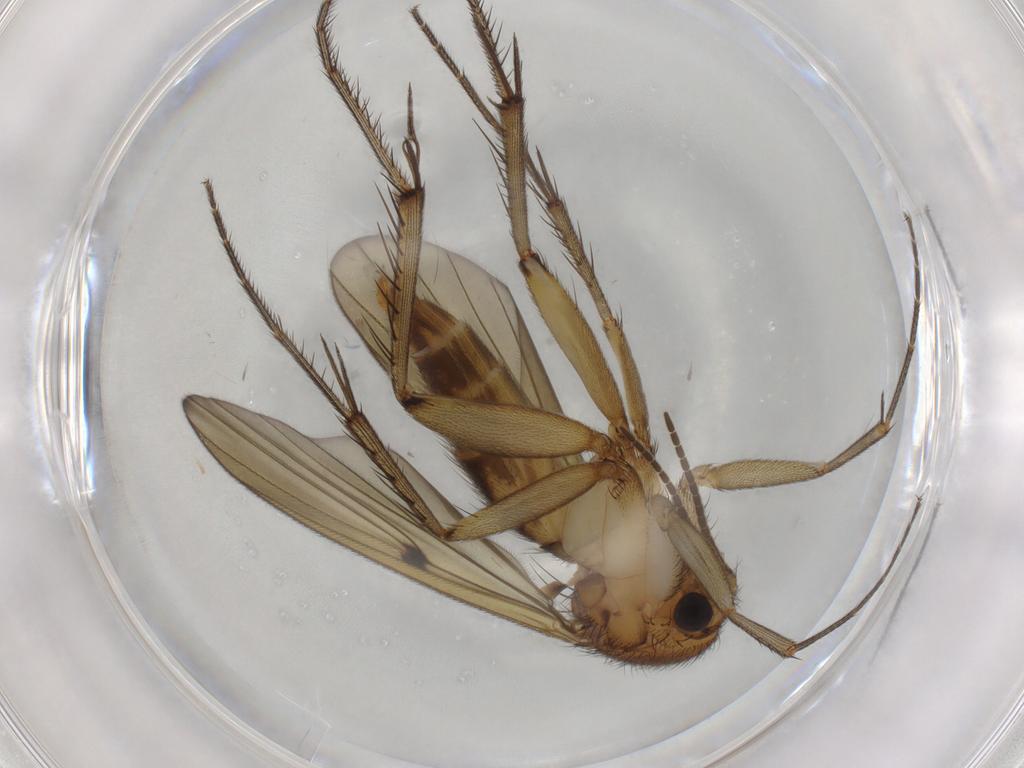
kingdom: Animalia
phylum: Arthropoda
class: Insecta
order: Diptera
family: Mycetophilidae
